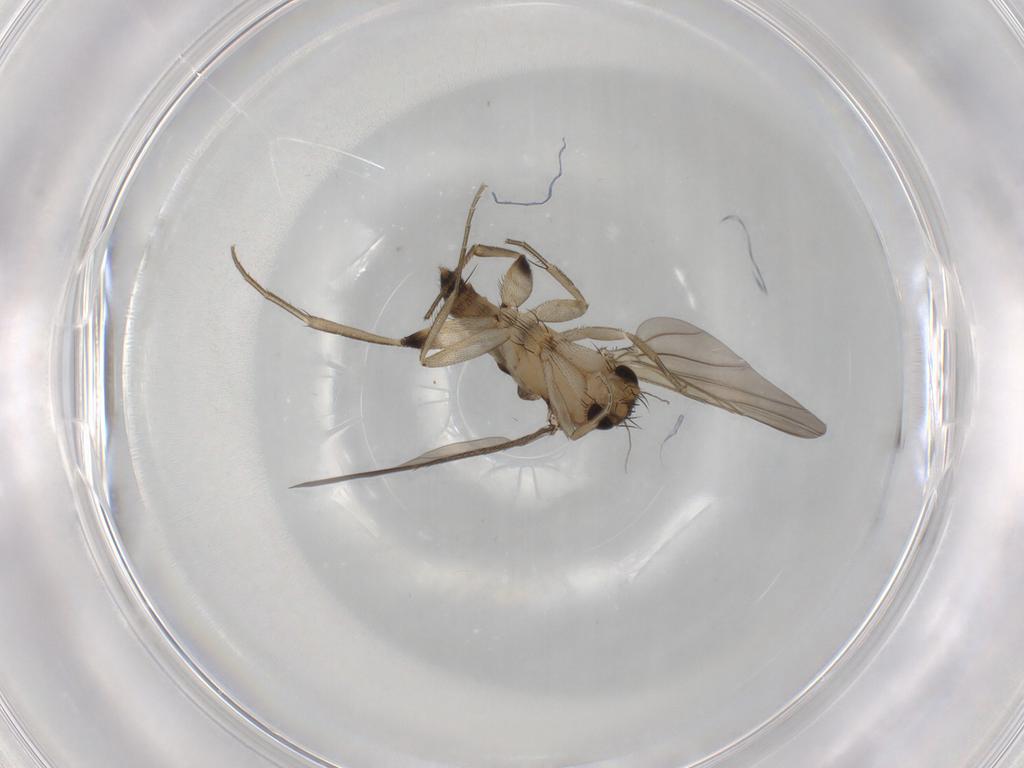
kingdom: Animalia
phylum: Arthropoda
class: Insecta
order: Diptera
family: Phoridae
